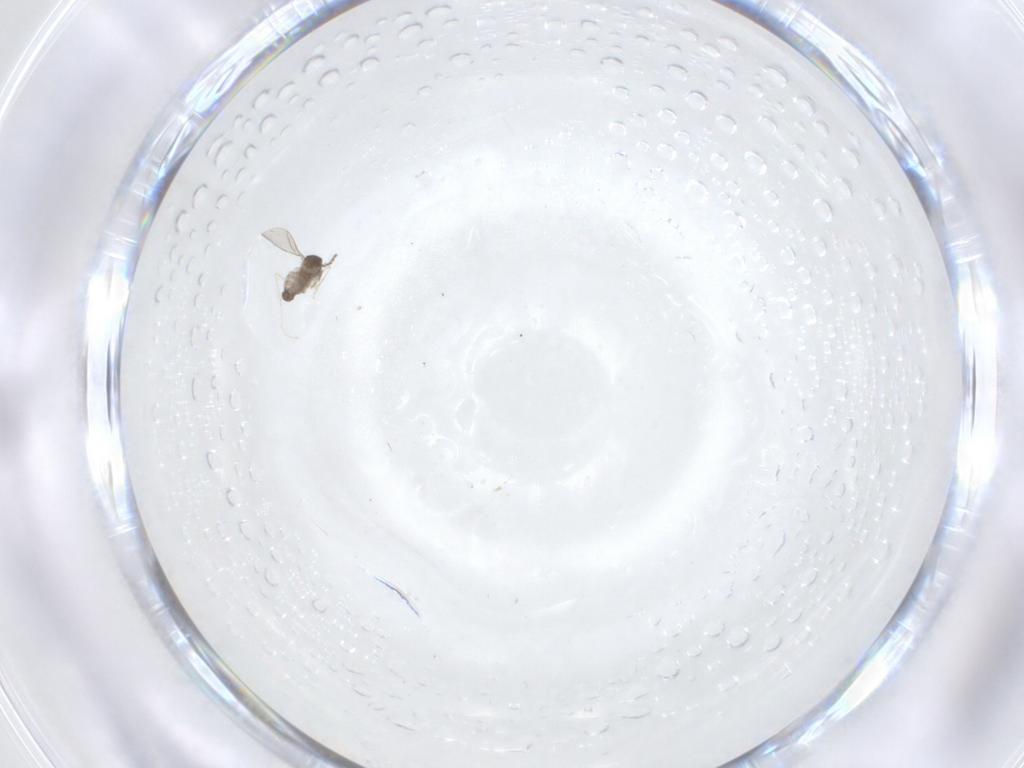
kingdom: Animalia
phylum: Arthropoda
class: Insecta
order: Diptera
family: Cecidomyiidae
